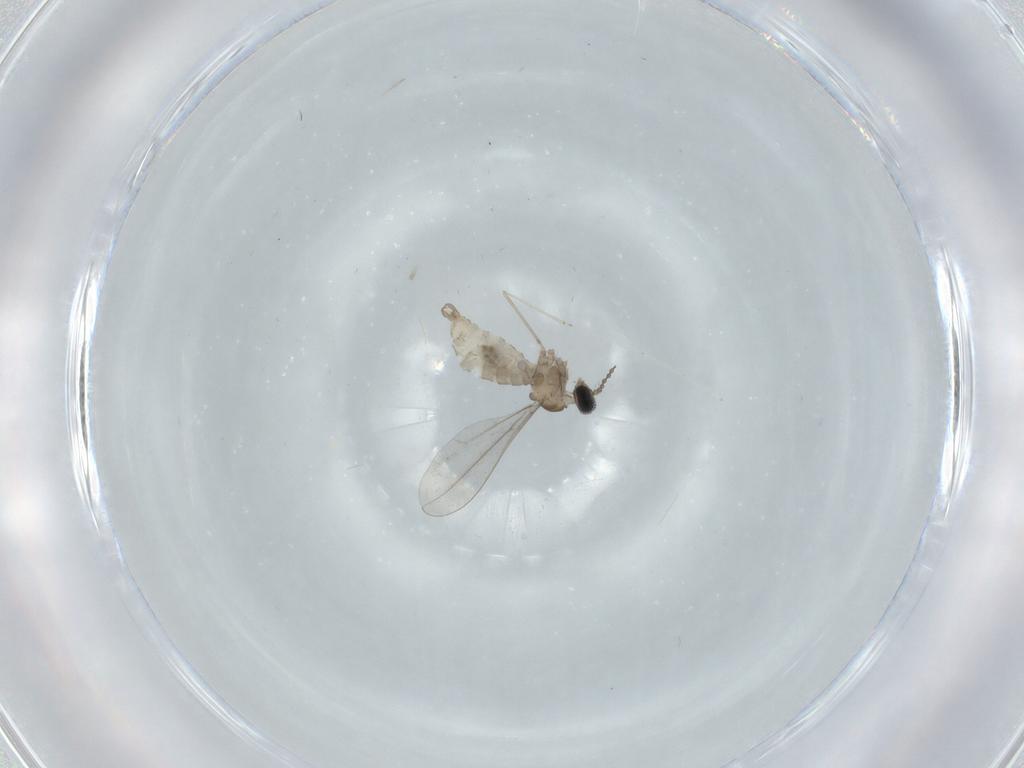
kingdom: Animalia
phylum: Arthropoda
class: Insecta
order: Diptera
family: Cecidomyiidae
